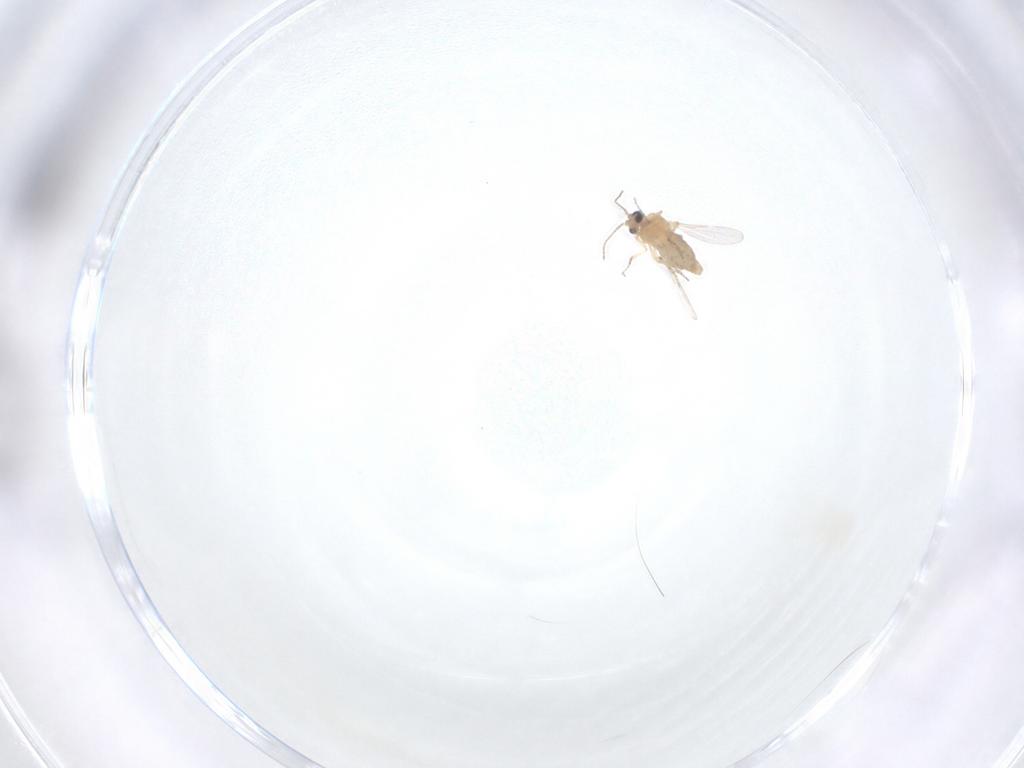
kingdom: Animalia
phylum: Arthropoda
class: Insecta
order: Diptera
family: Ceratopogonidae
